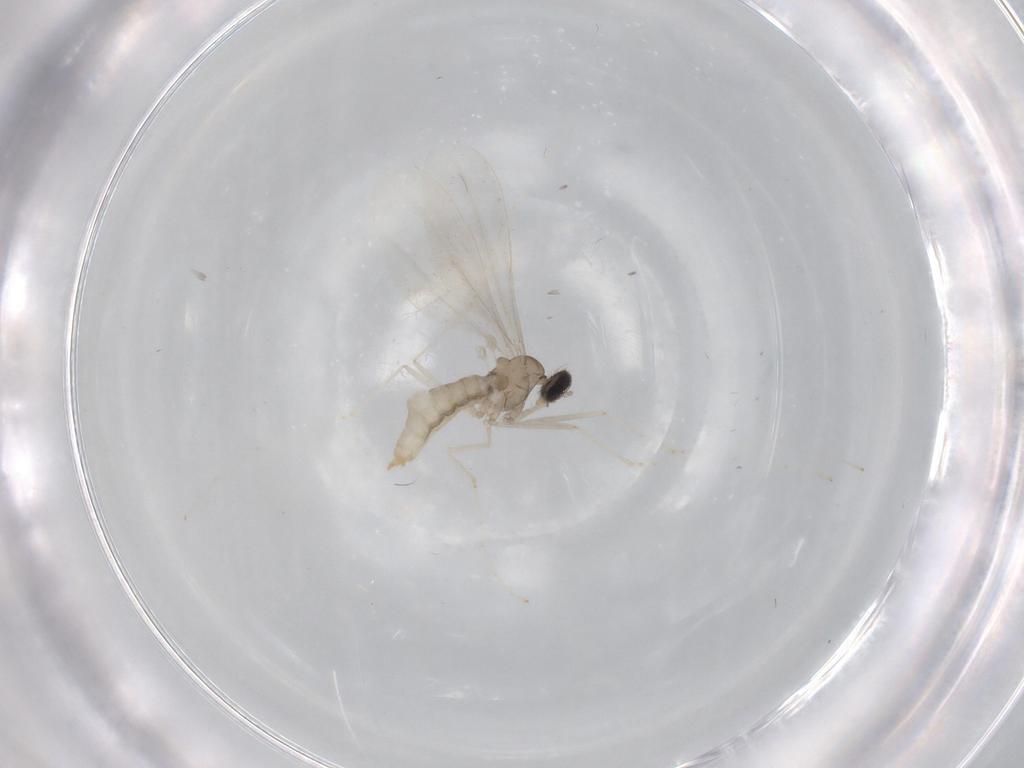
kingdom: Animalia
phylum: Arthropoda
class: Insecta
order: Diptera
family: Cecidomyiidae
